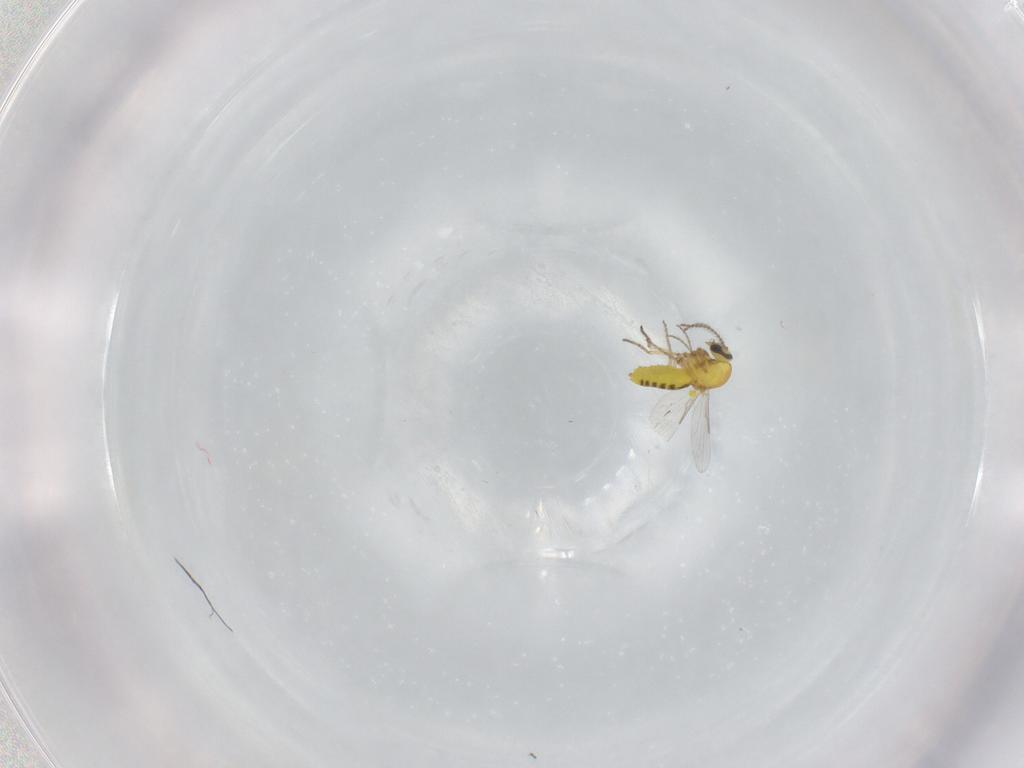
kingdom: Animalia
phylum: Arthropoda
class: Insecta
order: Diptera
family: Ceratopogonidae
